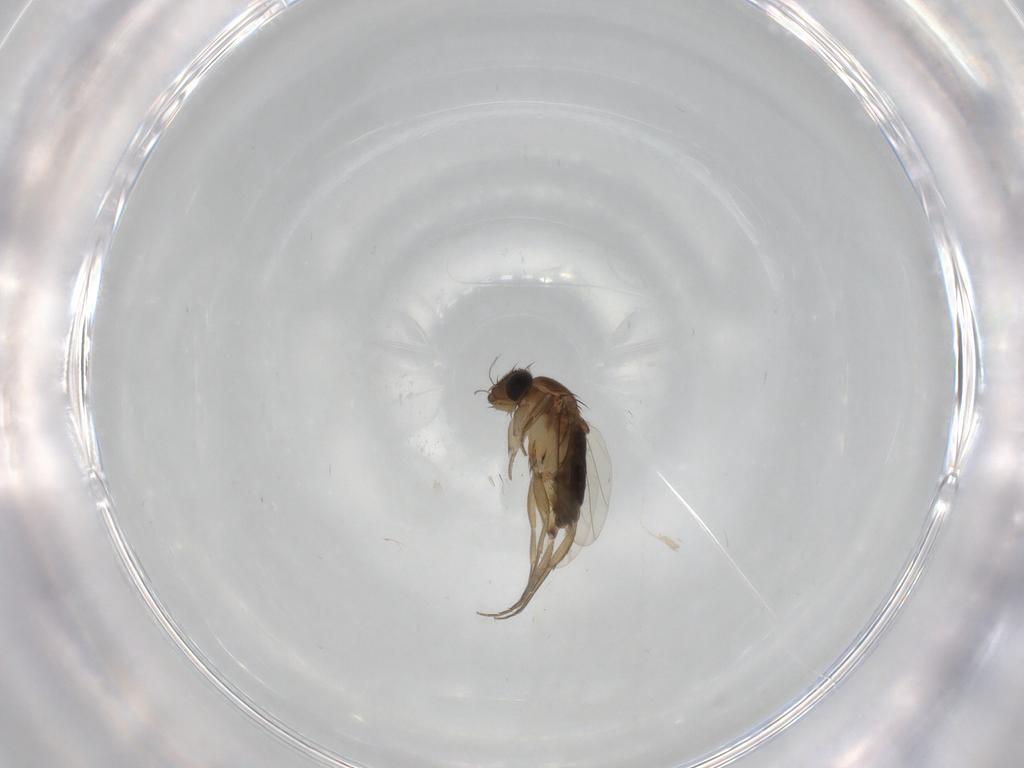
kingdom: Animalia
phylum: Arthropoda
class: Insecta
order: Diptera
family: Phoridae
